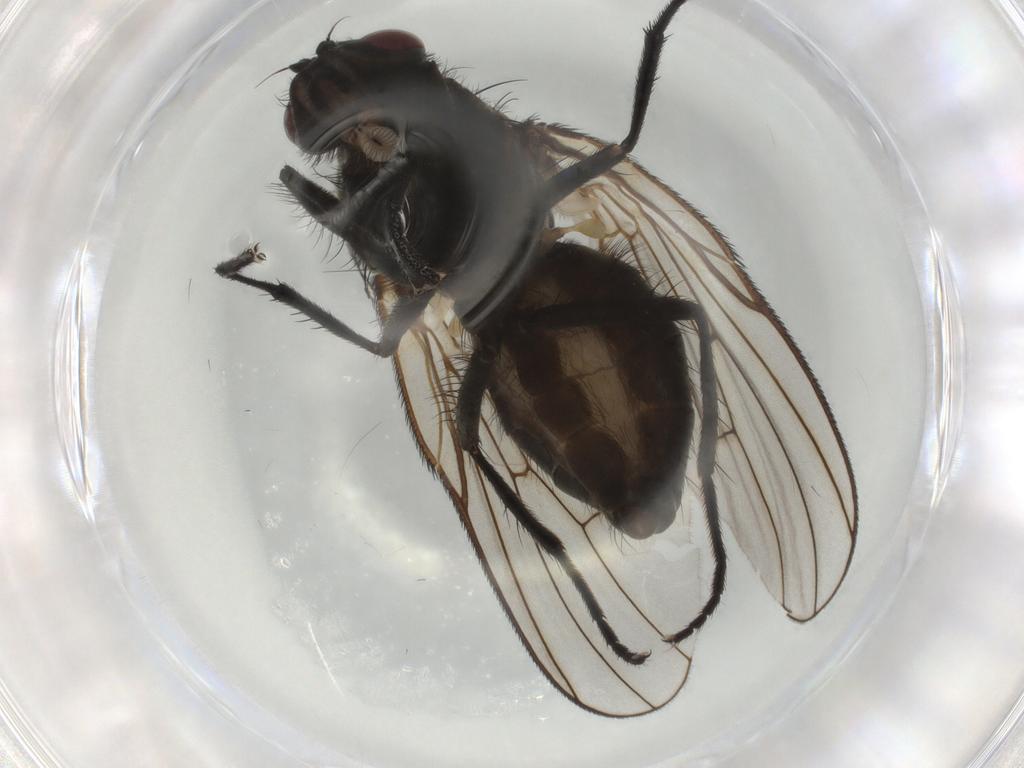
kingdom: Animalia
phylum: Arthropoda
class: Insecta
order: Diptera
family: Muscidae
